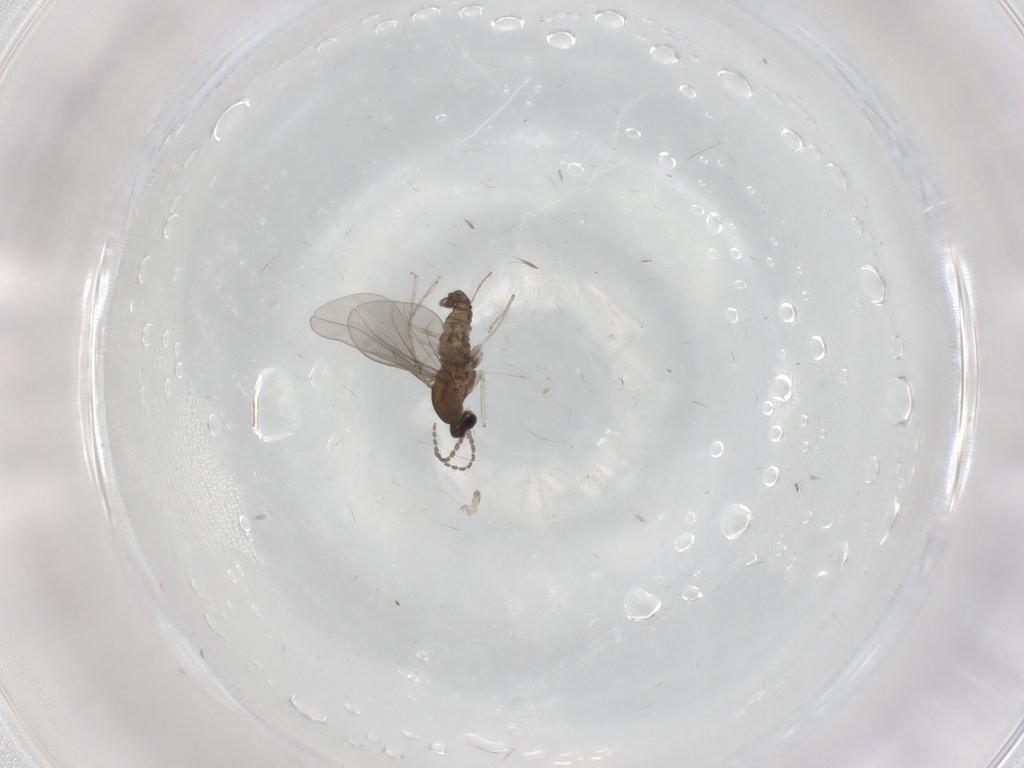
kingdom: Animalia
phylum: Arthropoda
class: Insecta
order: Diptera
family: Cecidomyiidae
